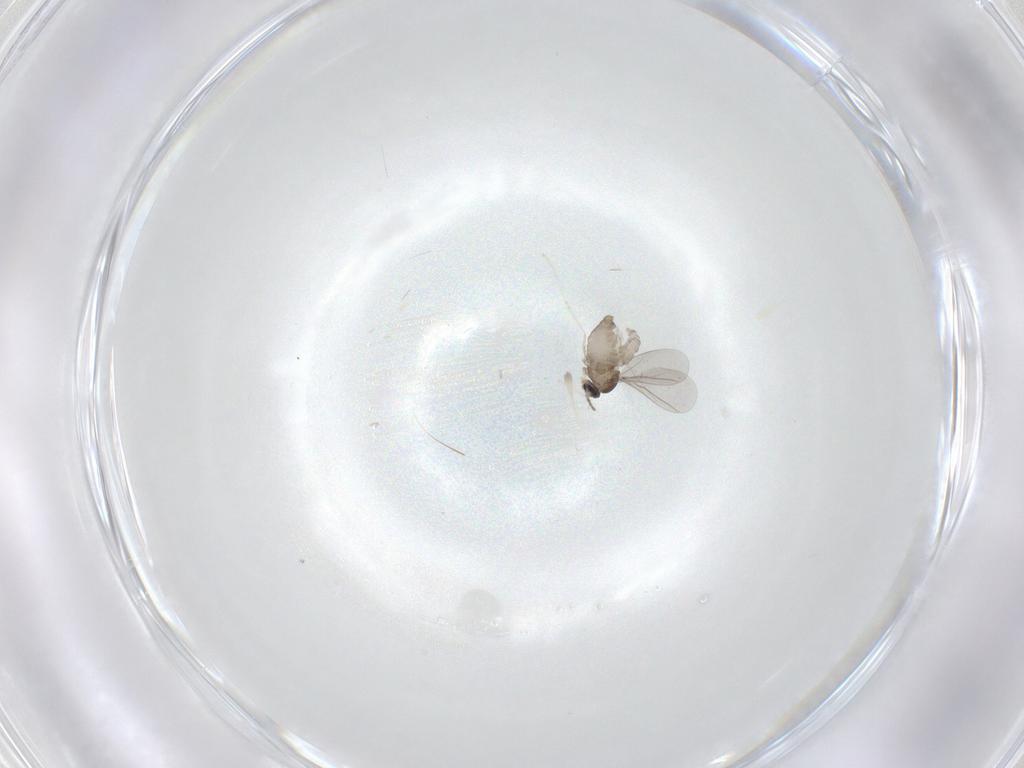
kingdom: Animalia
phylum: Arthropoda
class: Insecta
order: Diptera
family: Cecidomyiidae
